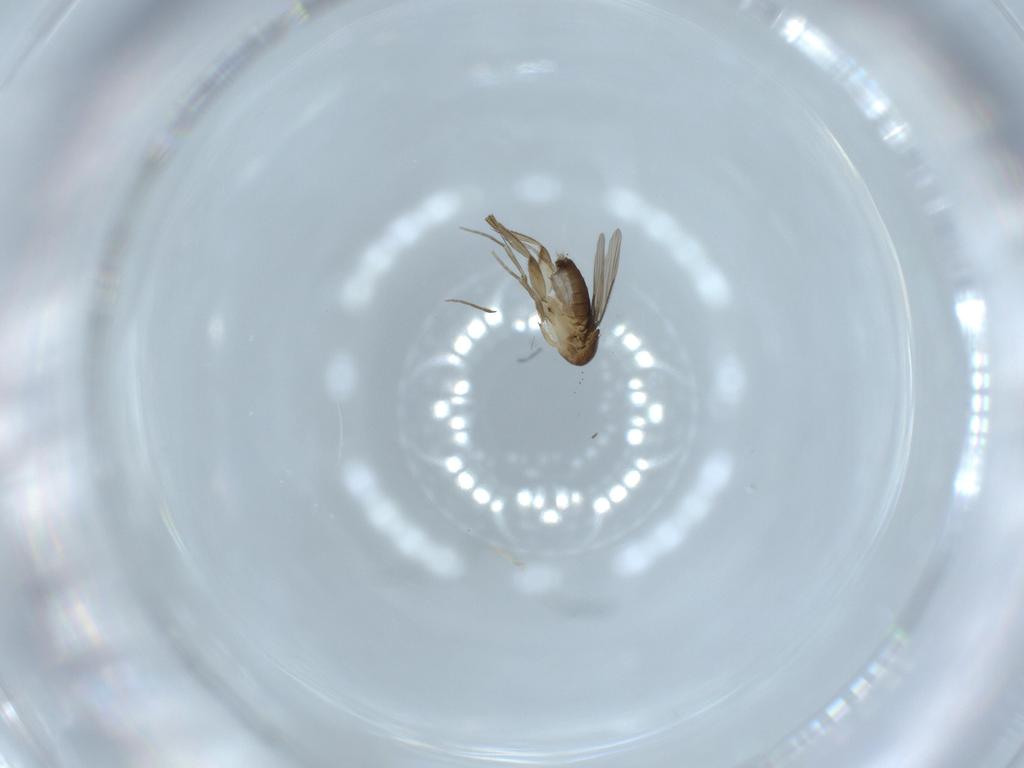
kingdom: Animalia
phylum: Arthropoda
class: Insecta
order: Diptera
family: Phoridae
